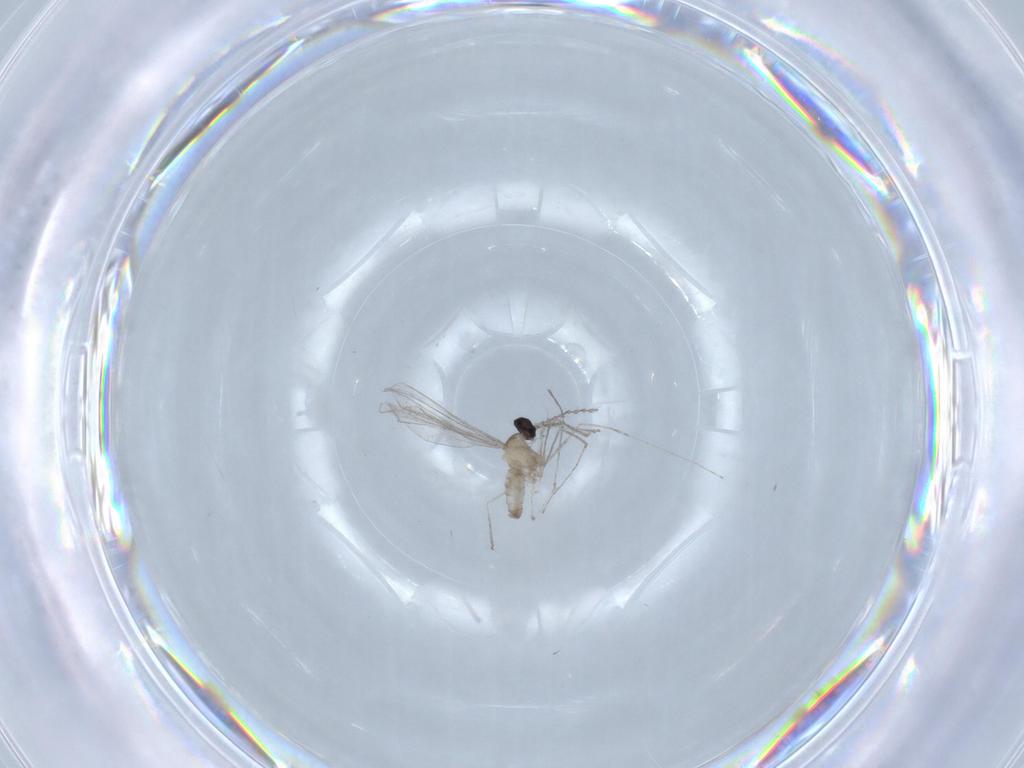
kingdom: Animalia
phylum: Arthropoda
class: Insecta
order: Diptera
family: Cecidomyiidae
